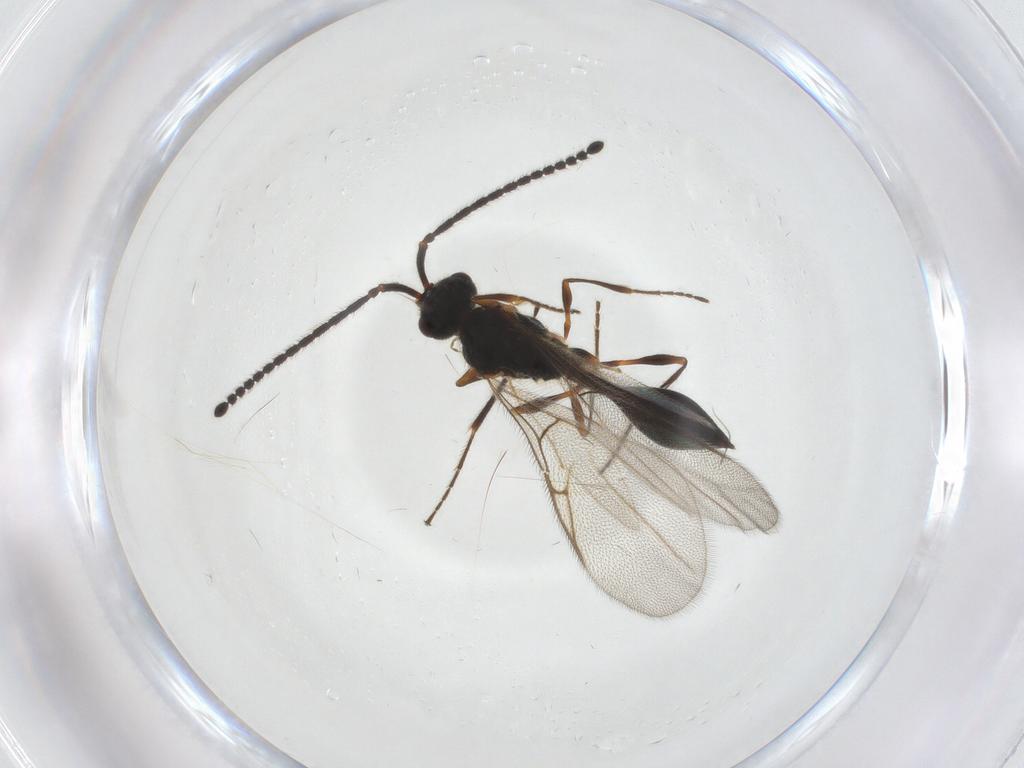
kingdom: Animalia
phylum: Arthropoda
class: Insecta
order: Hymenoptera
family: Diapriidae
